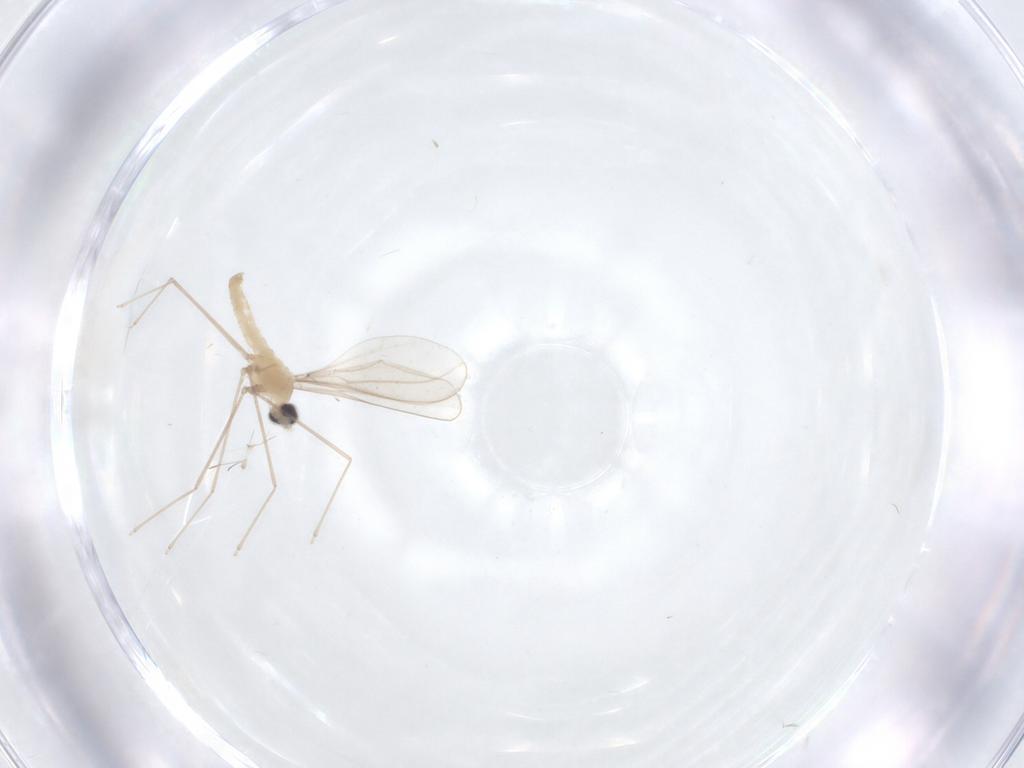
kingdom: Animalia
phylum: Arthropoda
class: Insecta
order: Diptera
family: Cecidomyiidae
